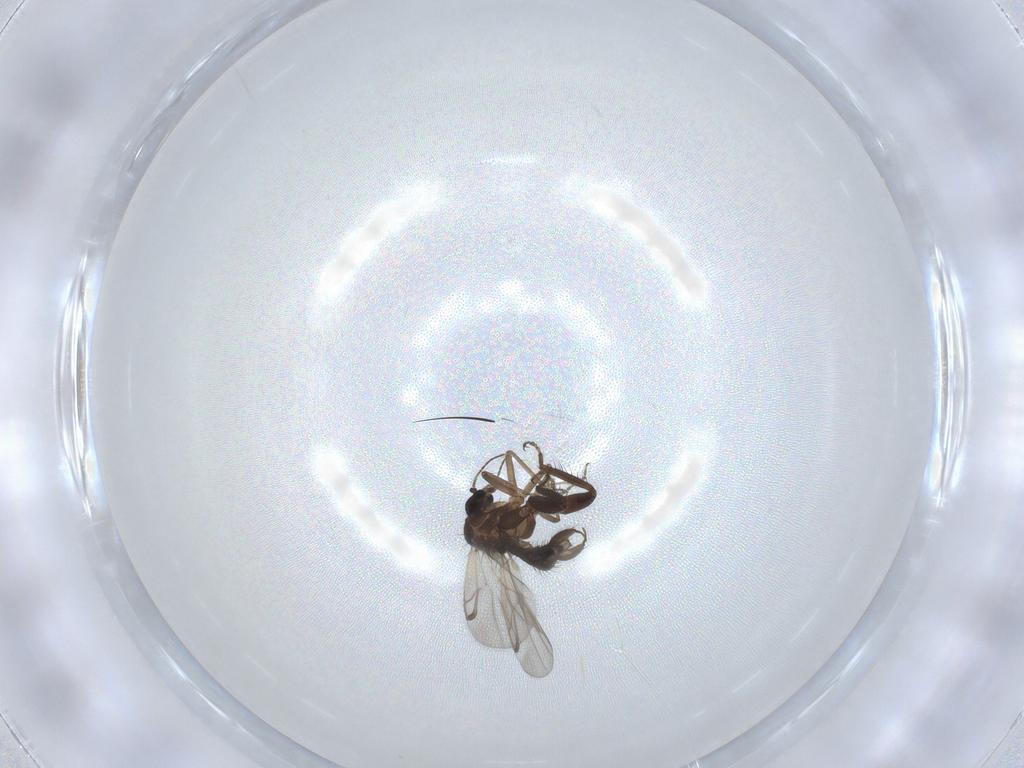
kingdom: Animalia
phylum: Arthropoda
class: Insecta
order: Diptera
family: Ceratopogonidae
